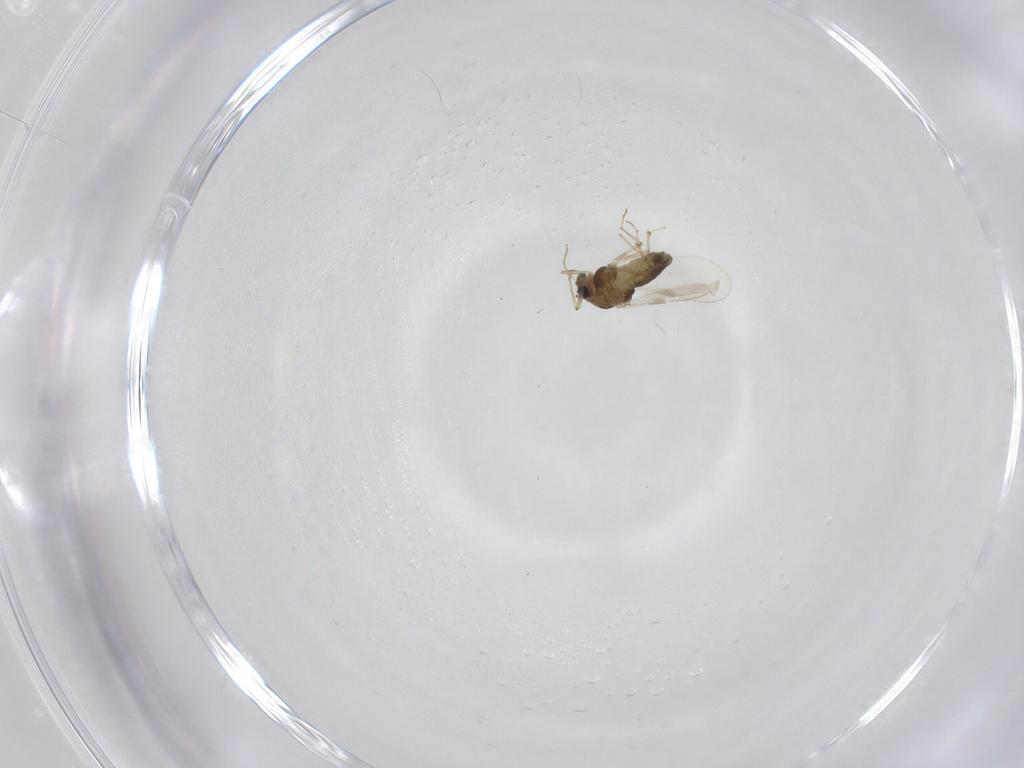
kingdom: Animalia
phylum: Arthropoda
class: Insecta
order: Diptera
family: Chironomidae
